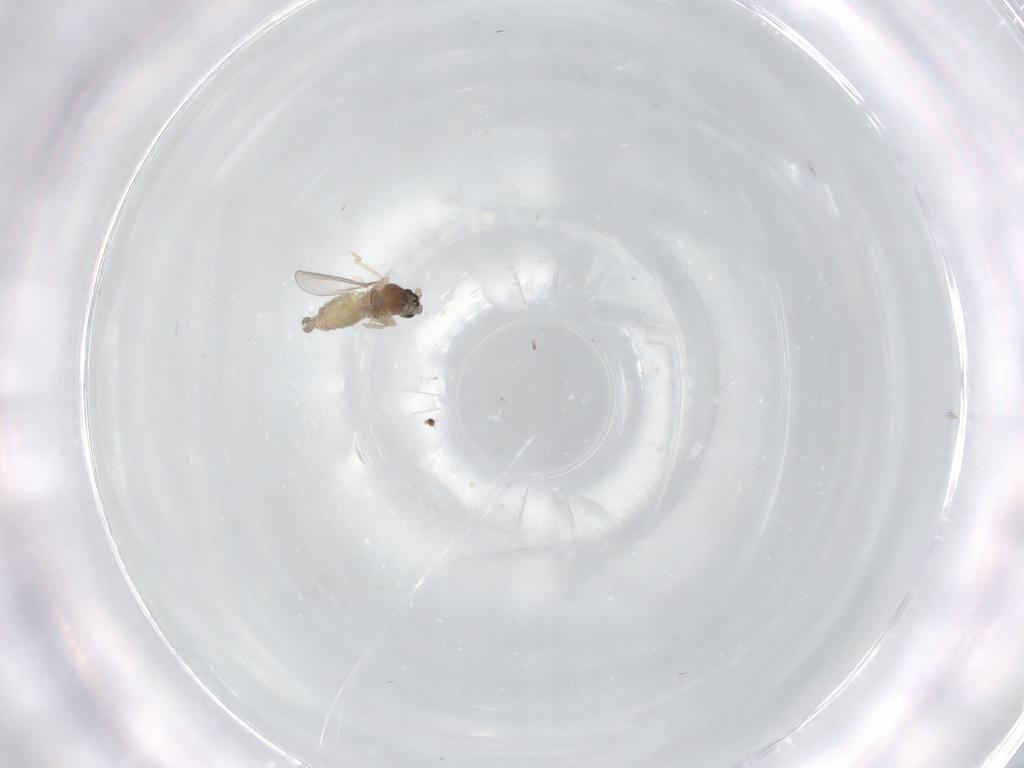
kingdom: Animalia
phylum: Arthropoda
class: Insecta
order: Diptera
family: Cecidomyiidae
